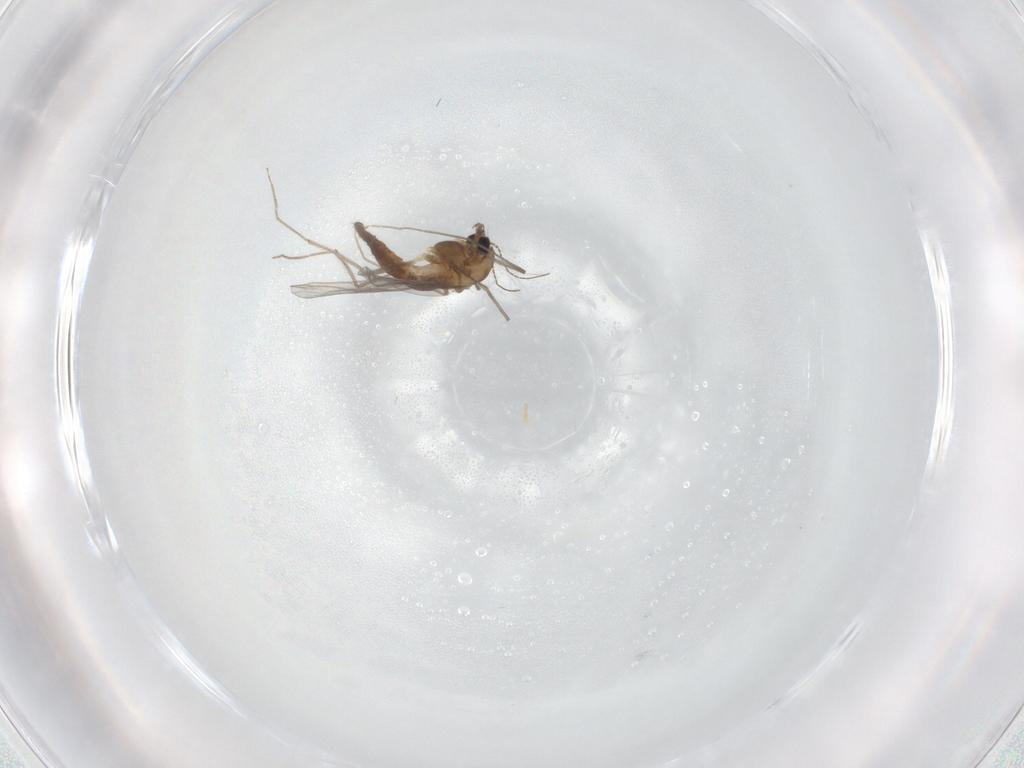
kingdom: Animalia
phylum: Arthropoda
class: Insecta
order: Diptera
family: Chironomidae
